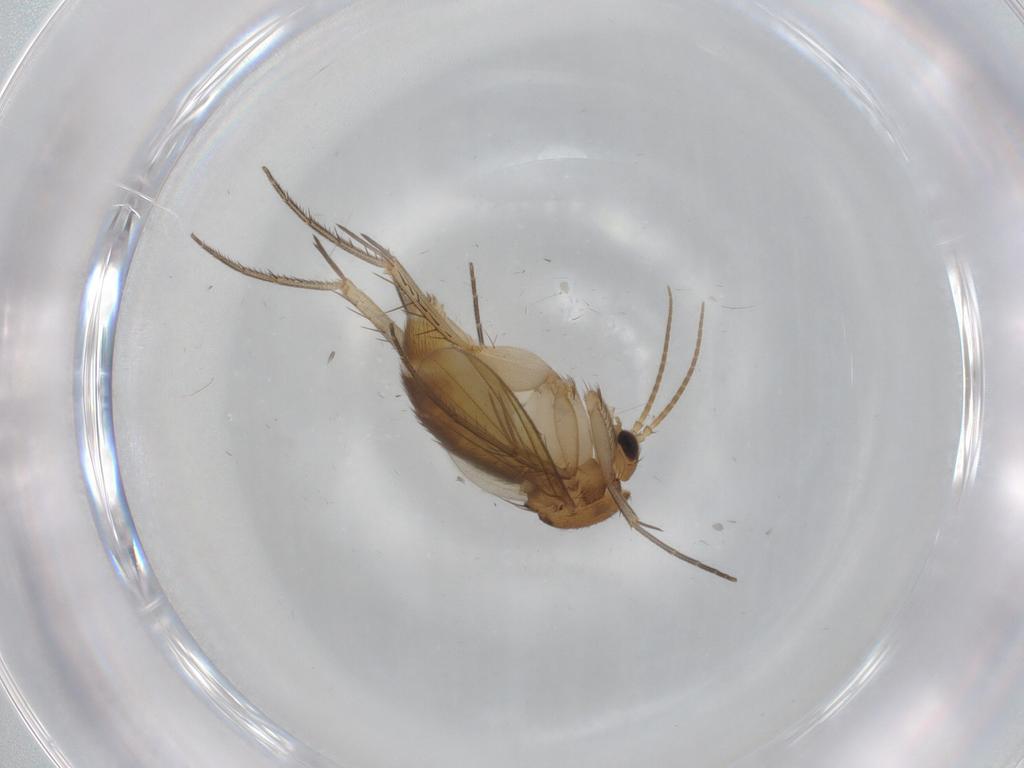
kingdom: Animalia
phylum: Arthropoda
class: Insecta
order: Diptera
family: Mycetophilidae
